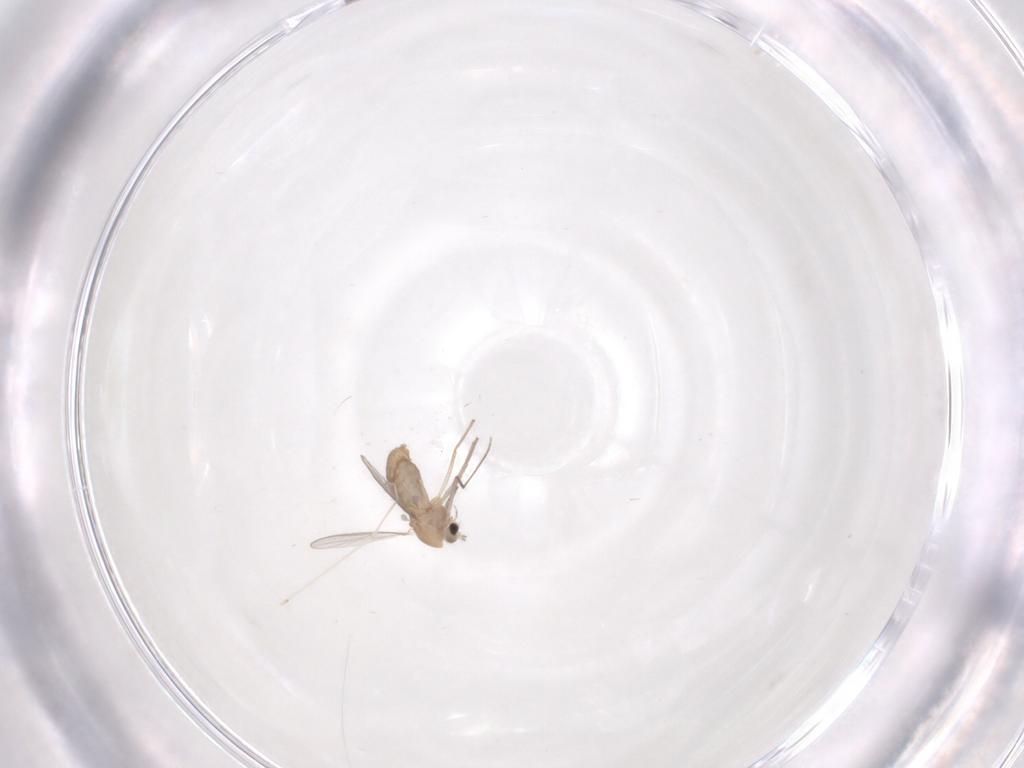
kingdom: Animalia
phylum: Arthropoda
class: Insecta
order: Diptera
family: Chironomidae
